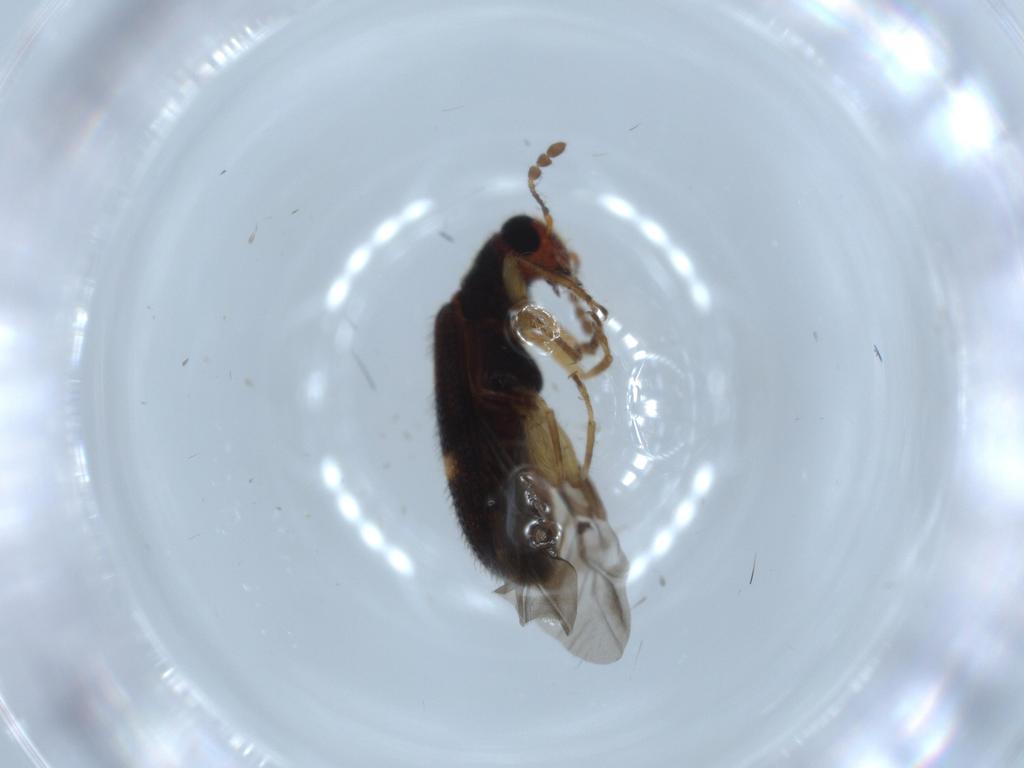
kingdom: Animalia
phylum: Arthropoda
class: Insecta
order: Coleoptera
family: Cleridae
